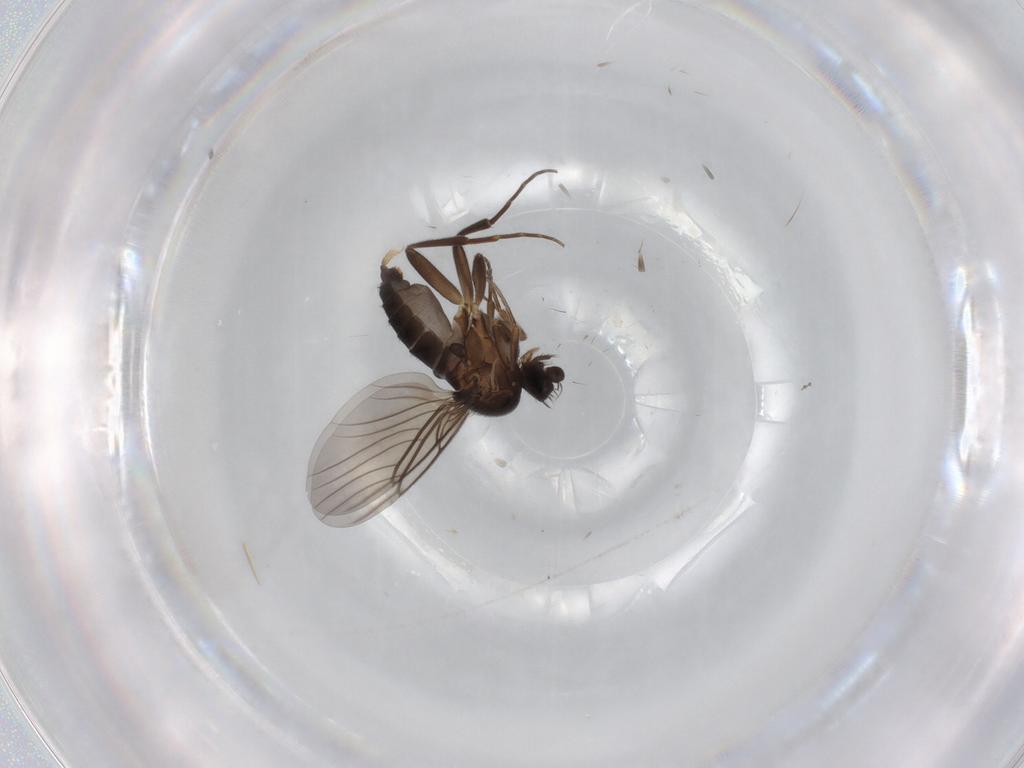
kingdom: Animalia
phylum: Arthropoda
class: Insecta
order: Diptera
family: Phoridae
